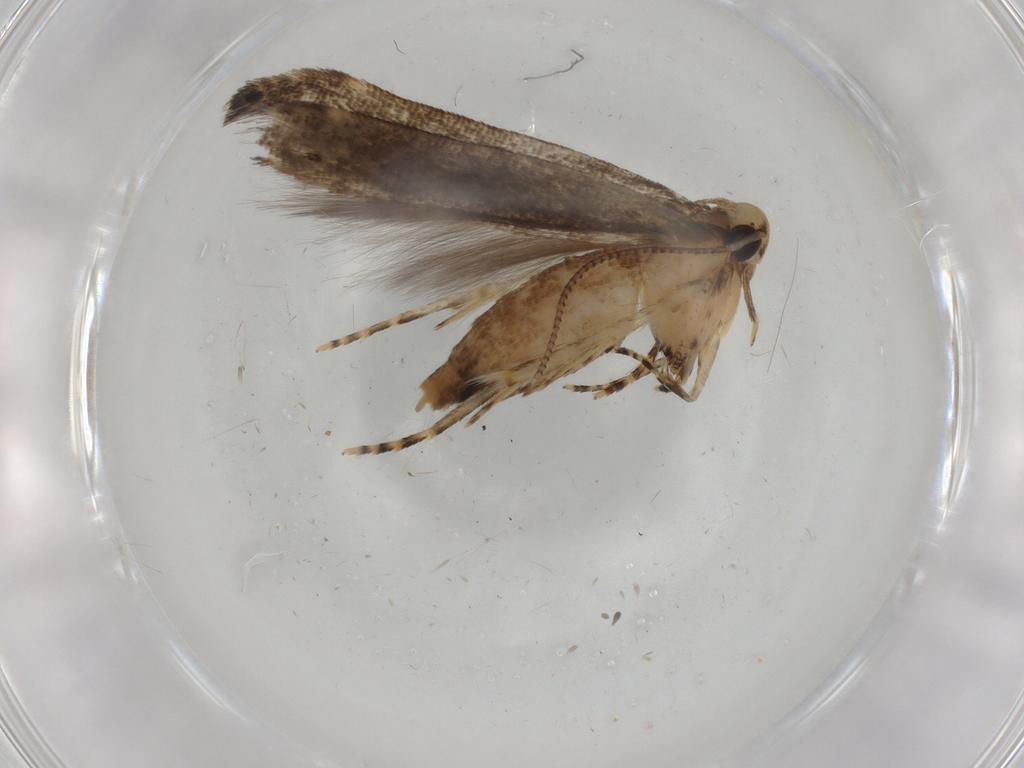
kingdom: Animalia
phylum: Arthropoda
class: Insecta
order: Lepidoptera
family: Cosmopterigidae
